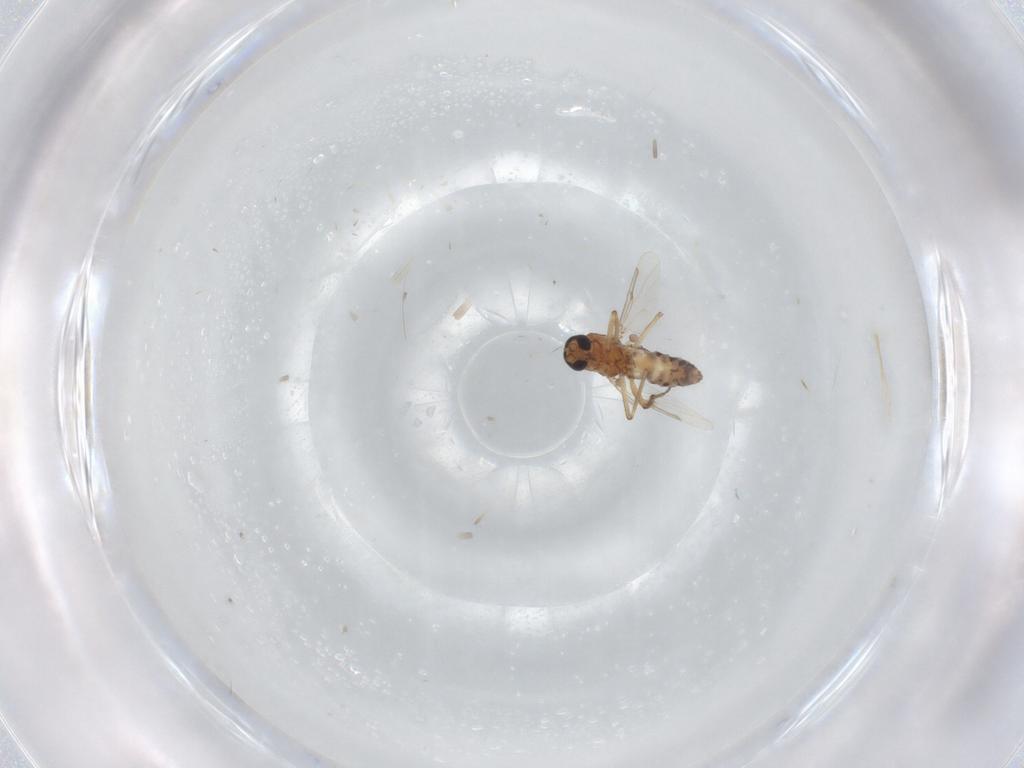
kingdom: Animalia
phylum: Arthropoda
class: Insecta
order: Diptera
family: Ceratopogonidae
